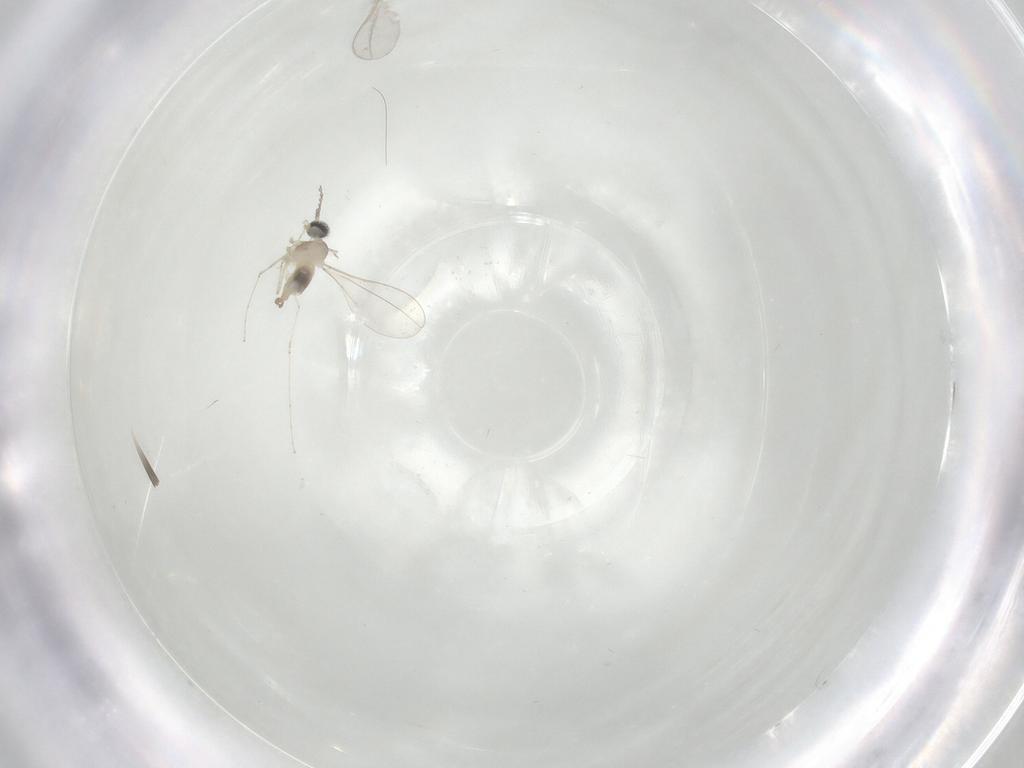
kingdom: Animalia
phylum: Arthropoda
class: Insecta
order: Diptera
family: Cecidomyiidae
